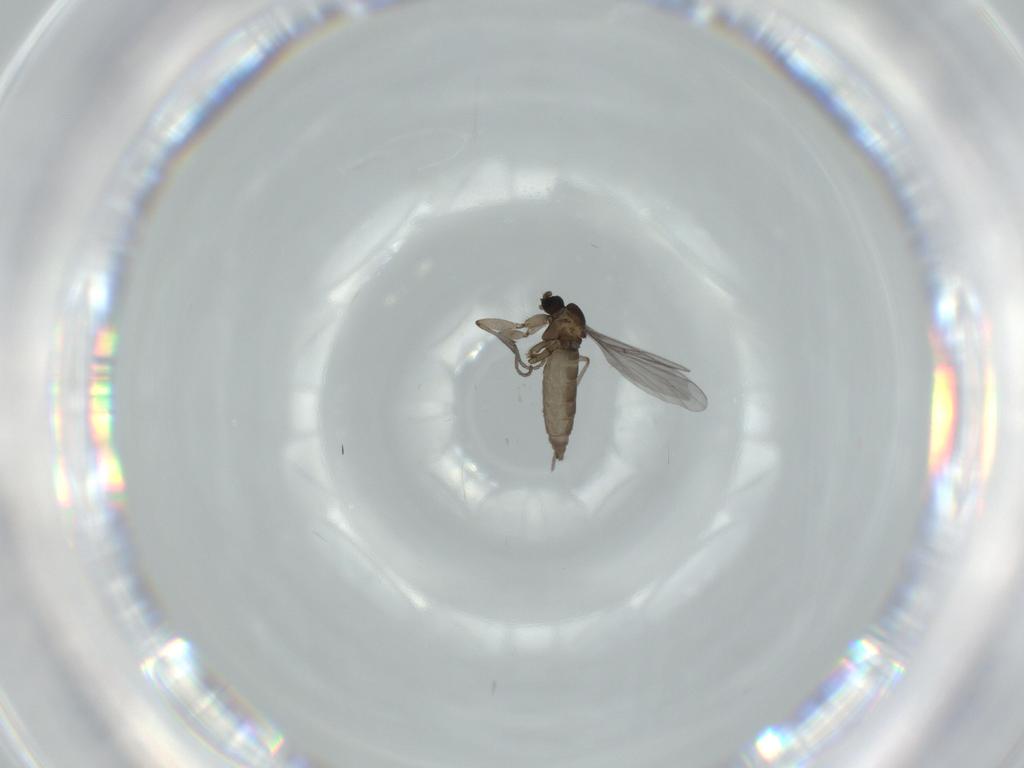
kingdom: Animalia
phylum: Arthropoda
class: Insecta
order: Diptera
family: Sciaridae
